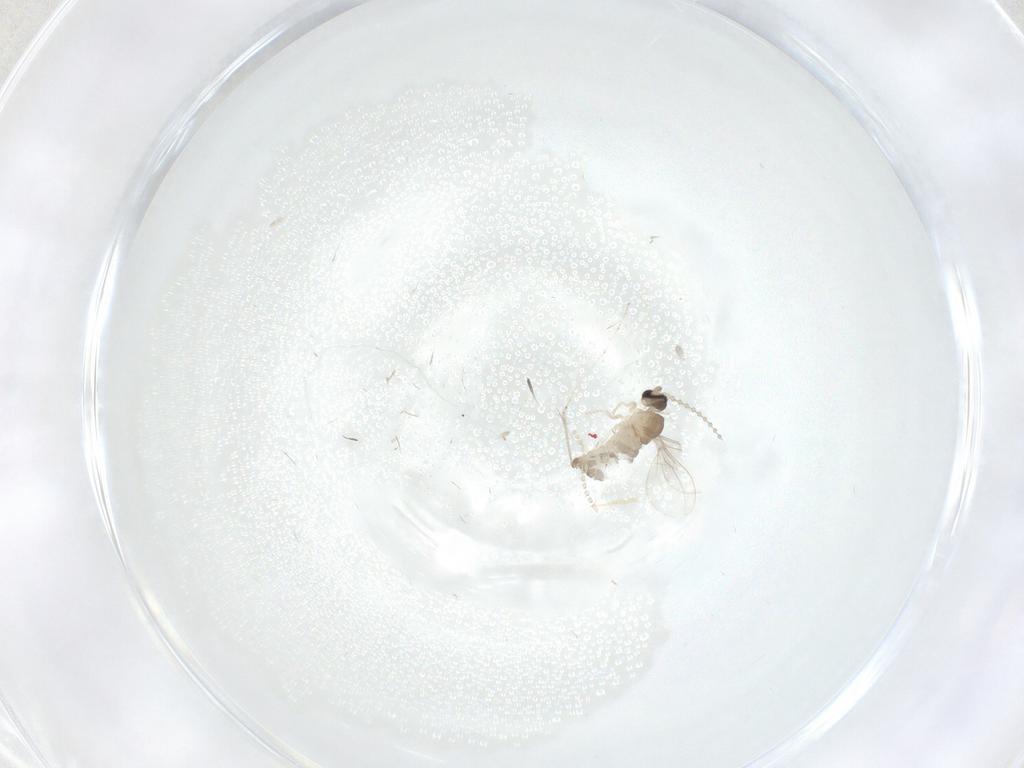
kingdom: Animalia
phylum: Arthropoda
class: Insecta
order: Diptera
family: Cecidomyiidae
